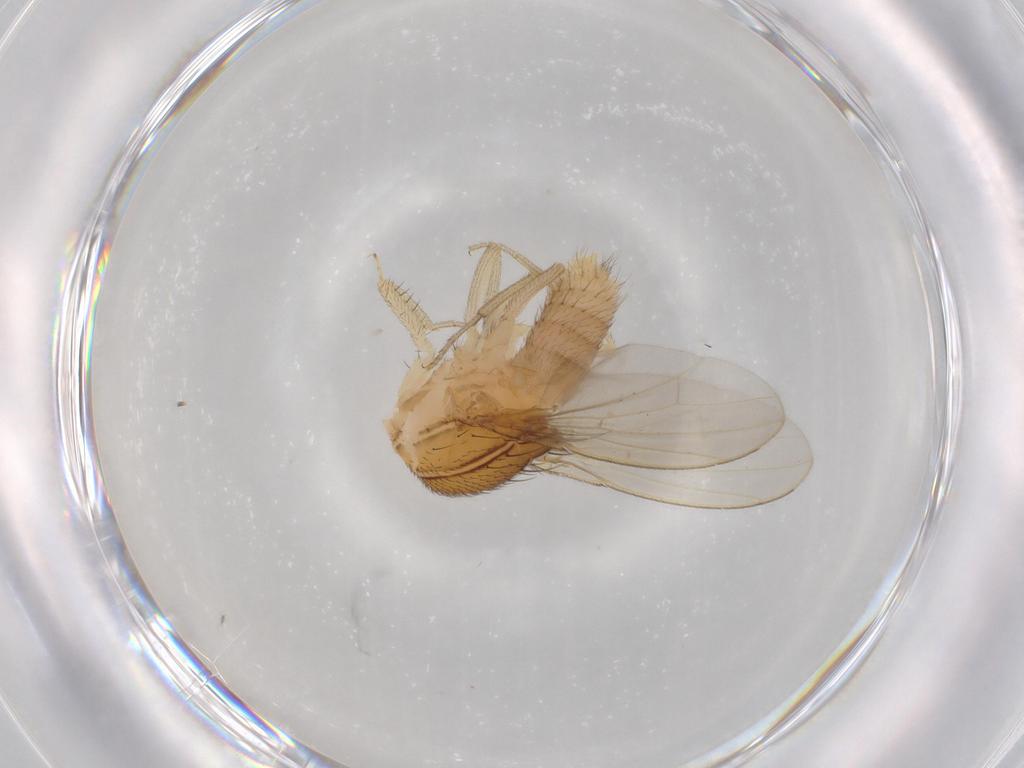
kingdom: Animalia
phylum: Arthropoda
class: Insecta
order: Diptera
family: Drosophilidae
